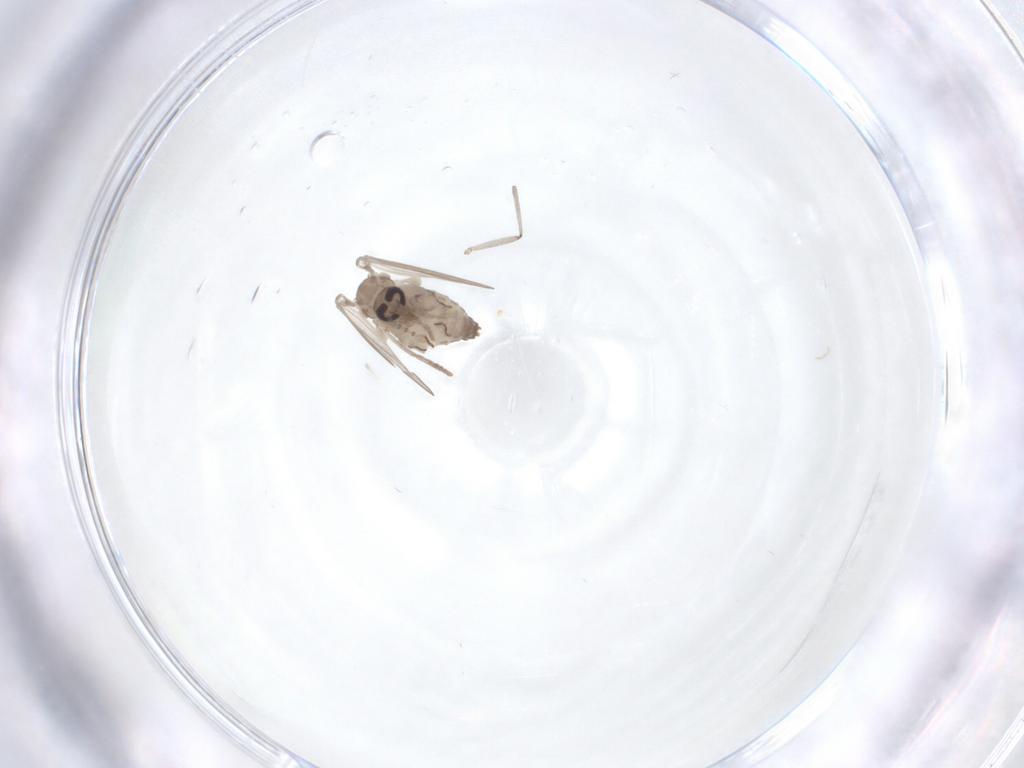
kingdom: Animalia
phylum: Arthropoda
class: Insecta
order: Diptera
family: Psychodidae
